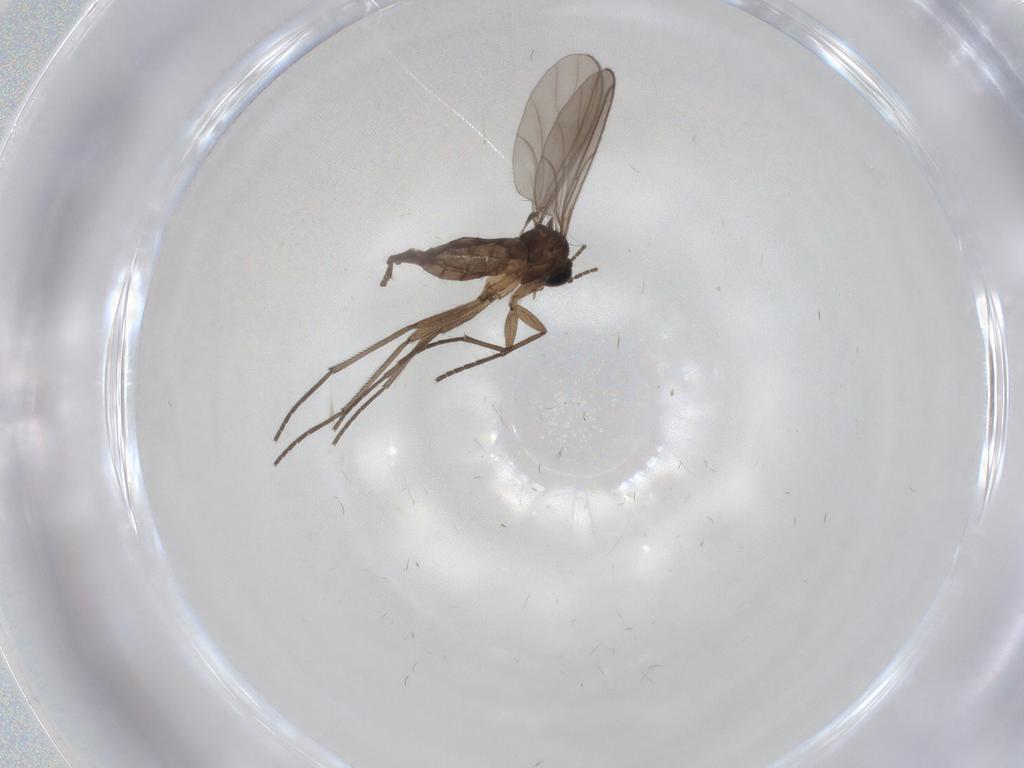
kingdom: Animalia
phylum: Arthropoda
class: Insecta
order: Diptera
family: Sciaridae
